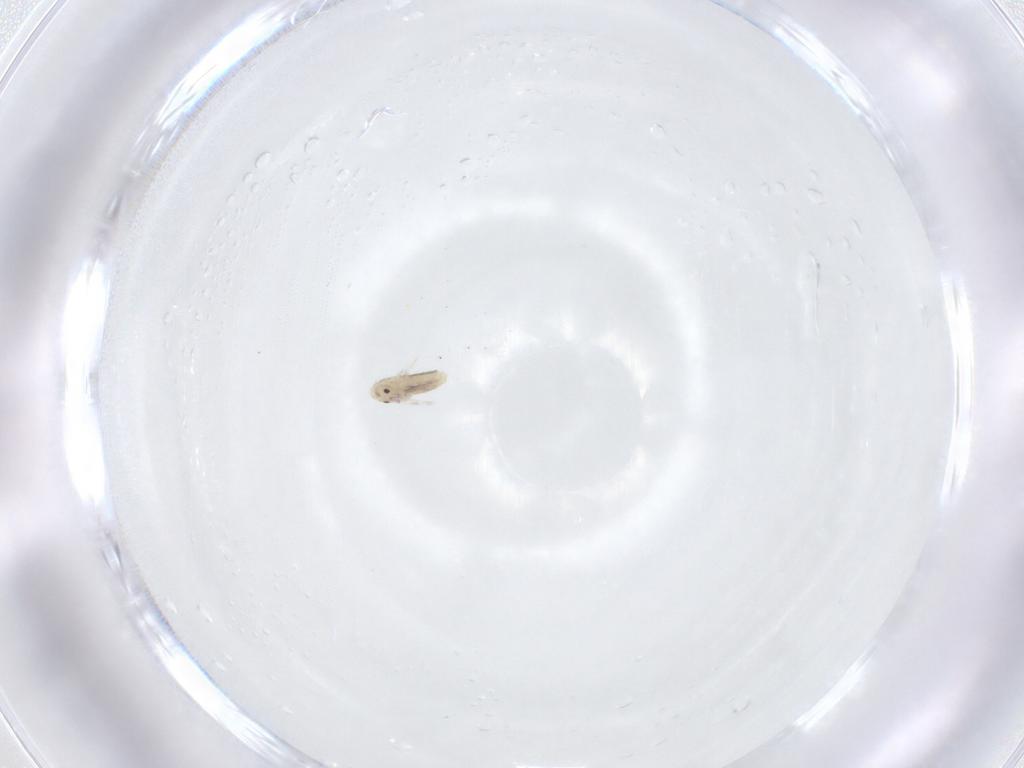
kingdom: Animalia
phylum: Arthropoda
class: Collembola
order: Entomobryomorpha
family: Entomobryidae
